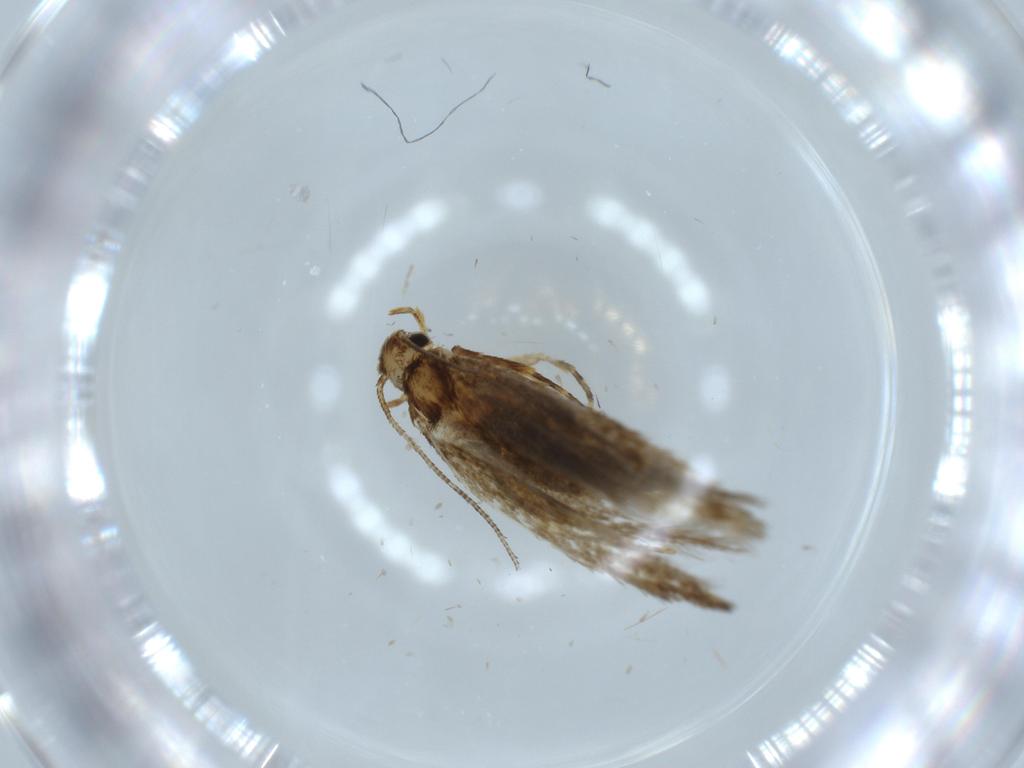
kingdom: Animalia
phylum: Arthropoda
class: Insecta
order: Lepidoptera
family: Tineidae
